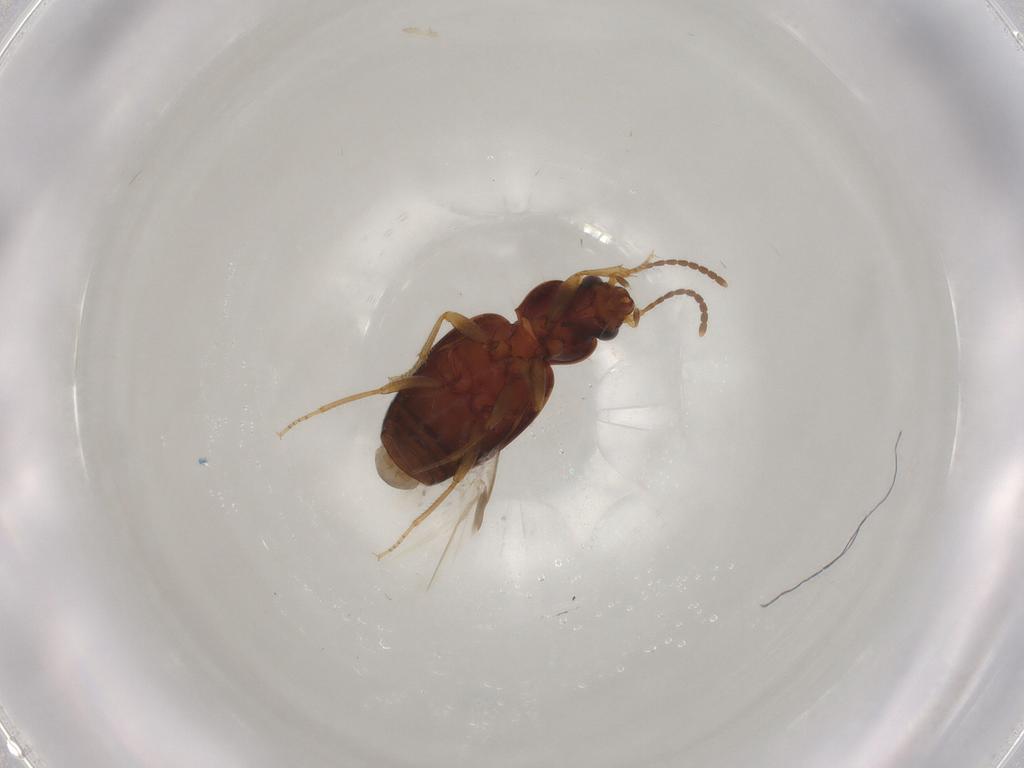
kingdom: Animalia
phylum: Arthropoda
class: Insecta
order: Coleoptera
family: Carabidae
